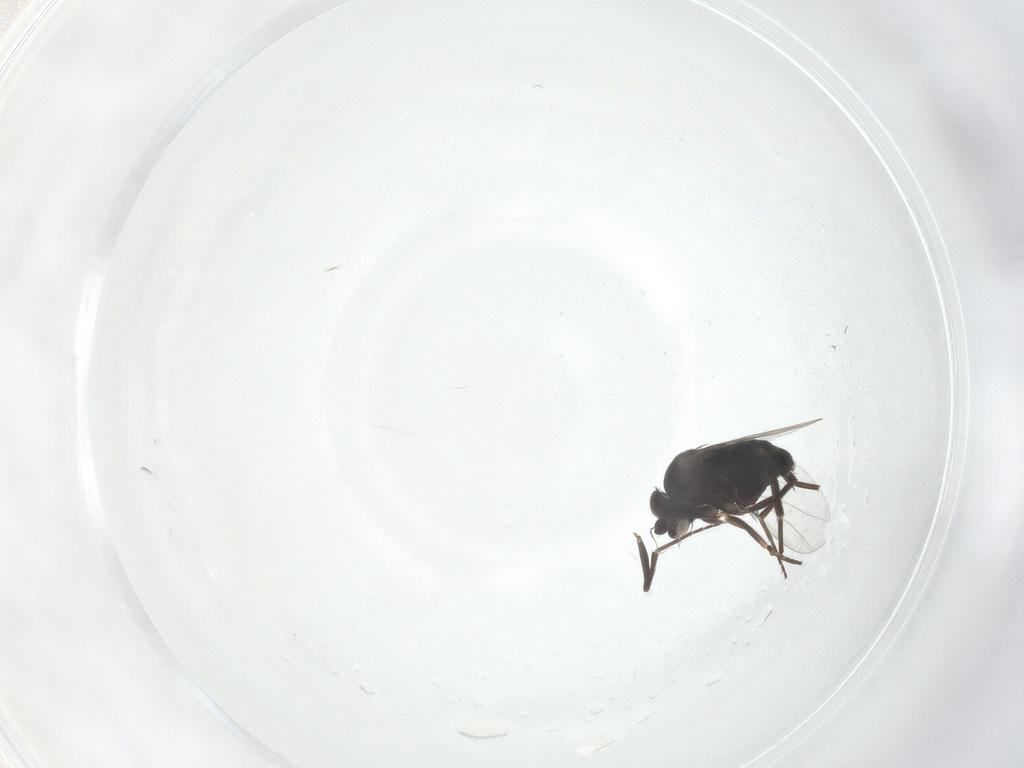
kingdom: Animalia
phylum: Arthropoda
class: Insecta
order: Diptera
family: Phoridae
